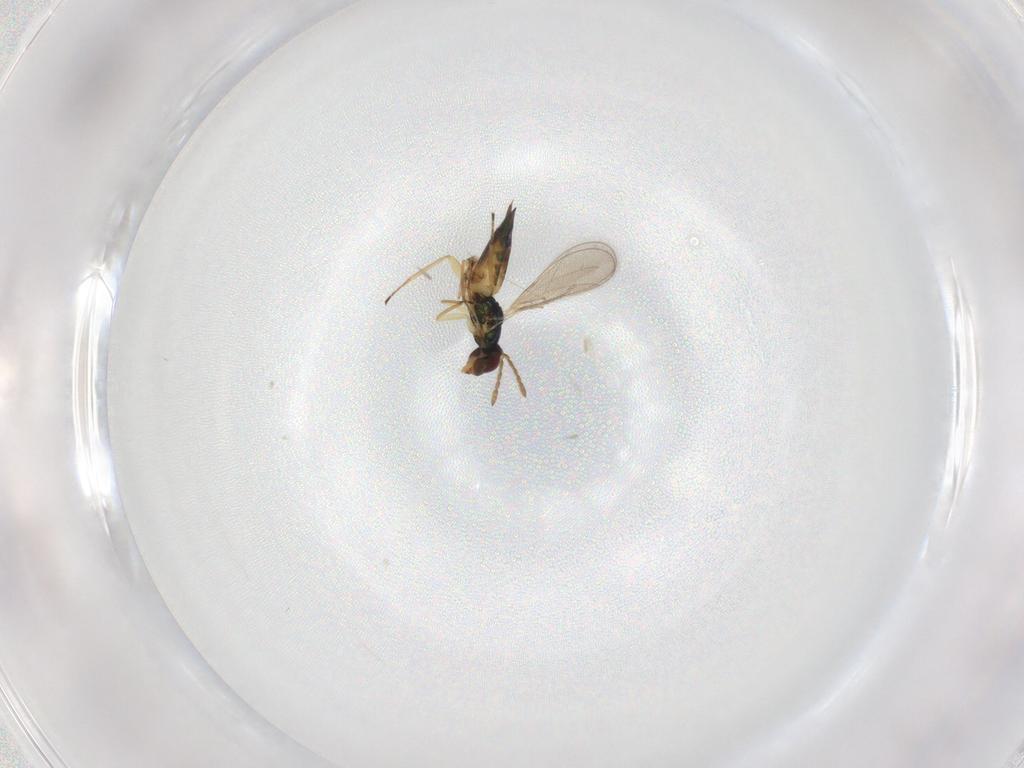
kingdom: Animalia
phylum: Arthropoda
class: Insecta
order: Hymenoptera
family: Eulophidae
